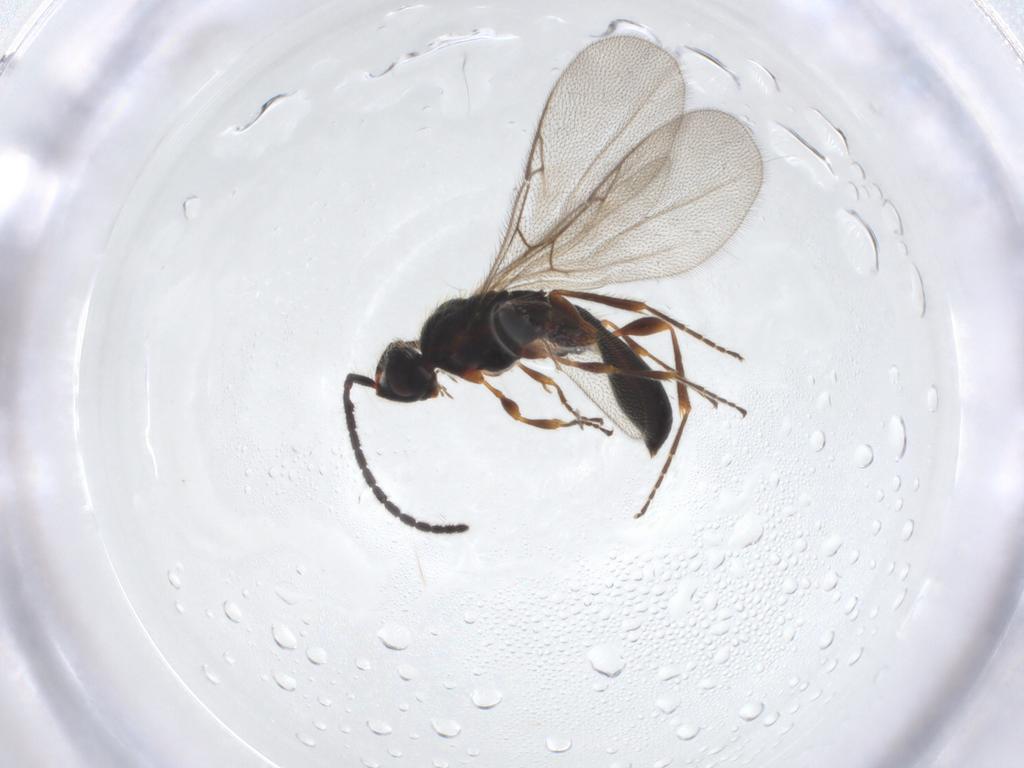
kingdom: Animalia
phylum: Arthropoda
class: Insecta
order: Hymenoptera
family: Diapriidae
